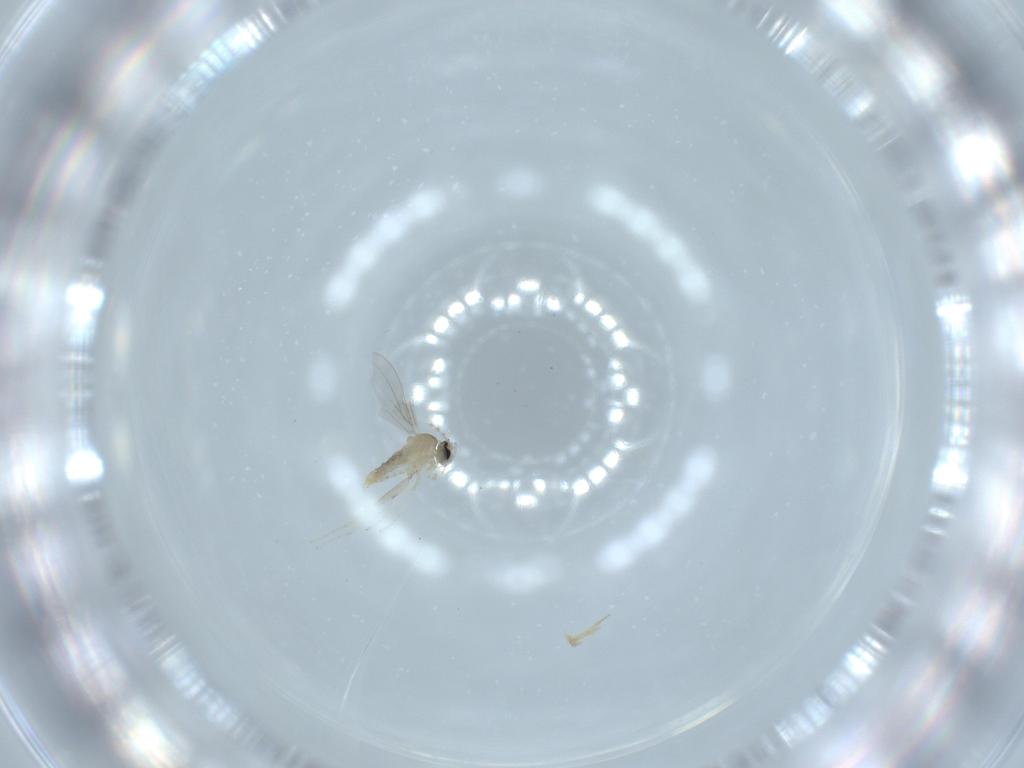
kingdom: Animalia
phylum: Arthropoda
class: Insecta
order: Diptera
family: Cecidomyiidae
